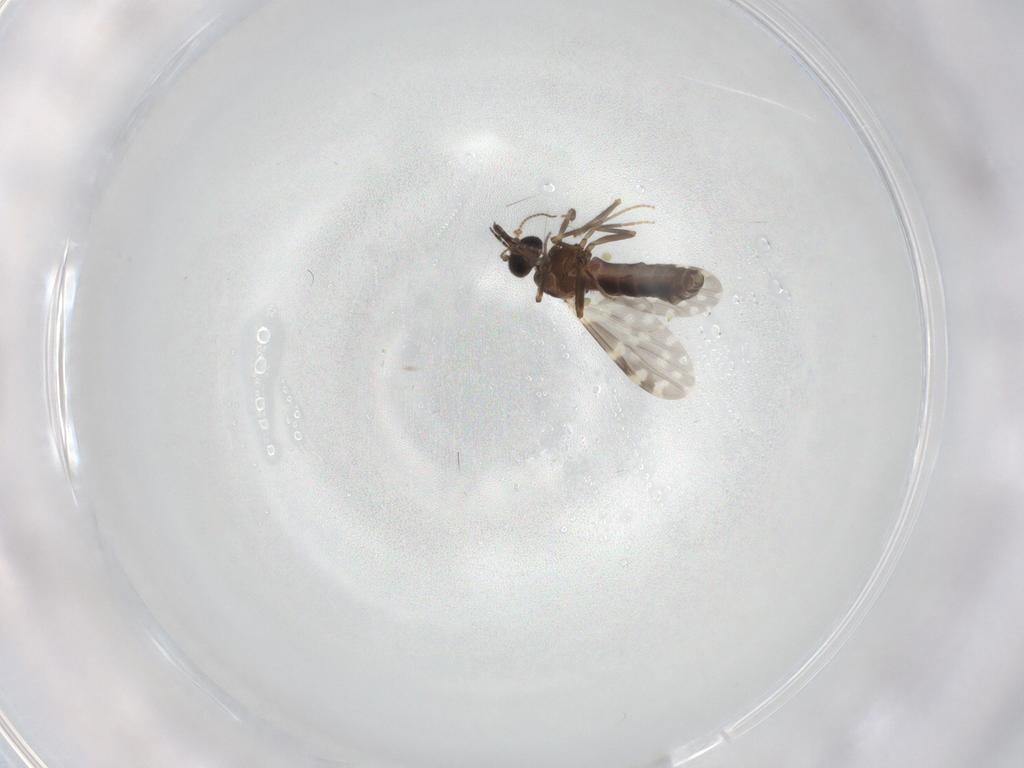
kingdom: Animalia
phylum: Arthropoda
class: Insecta
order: Diptera
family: Ceratopogonidae
